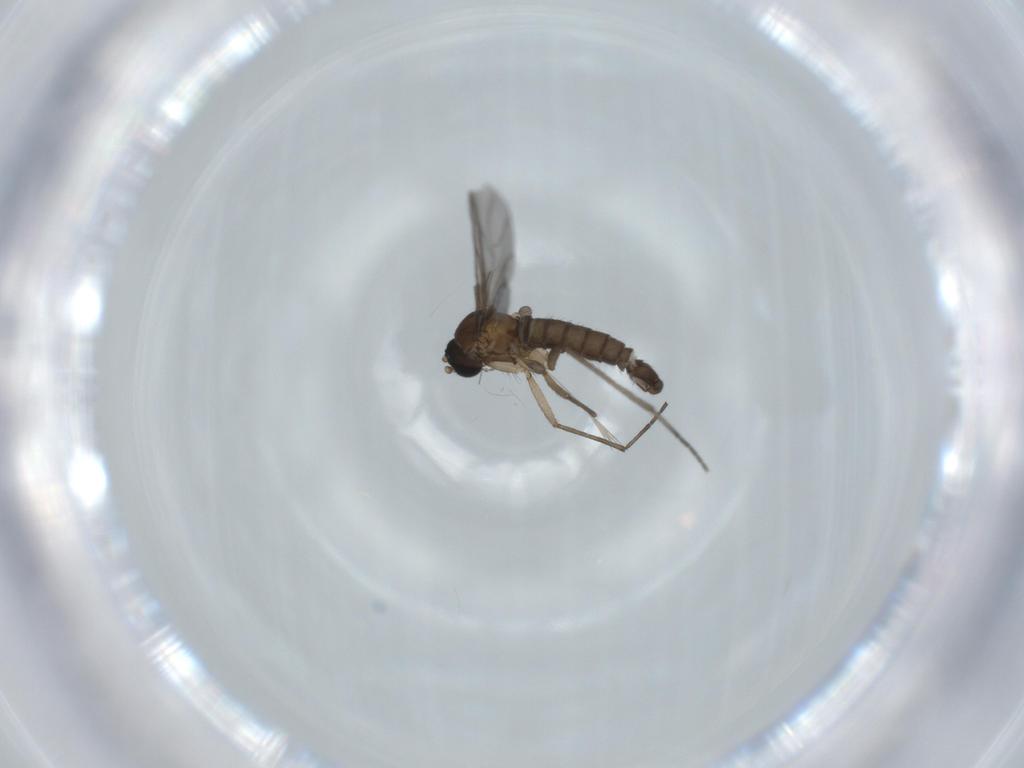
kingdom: Animalia
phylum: Arthropoda
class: Insecta
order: Diptera
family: Sciaridae
